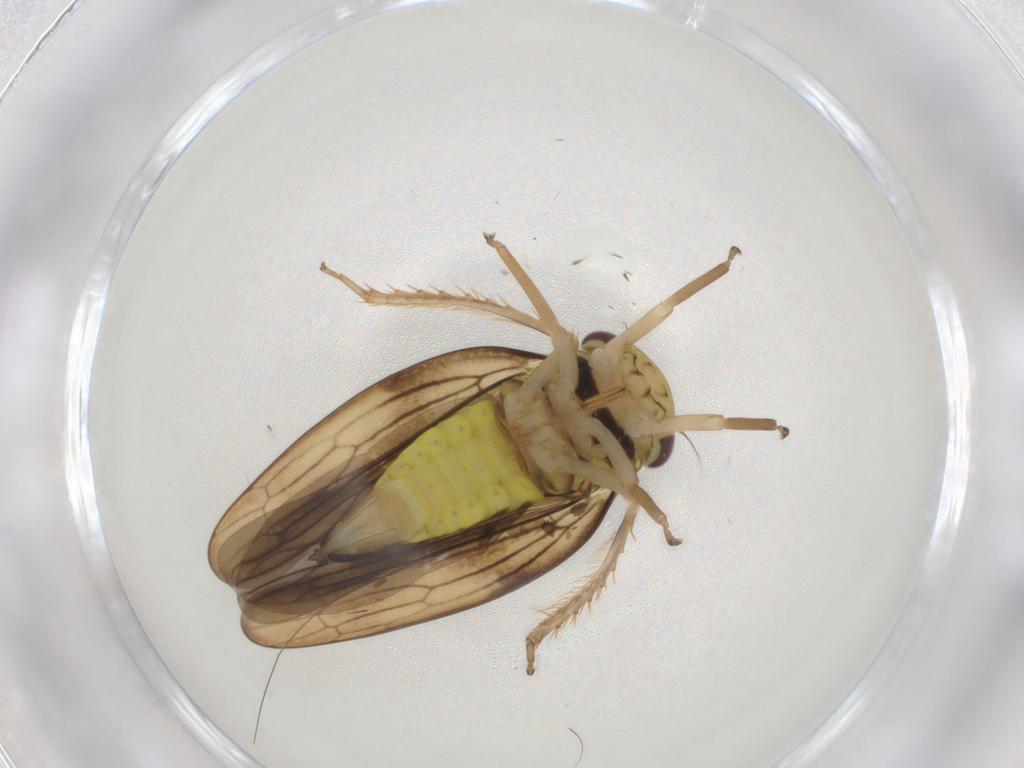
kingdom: Animalia
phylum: Arthropoda
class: Insecta
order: Hemiptera
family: Cicadellidae
